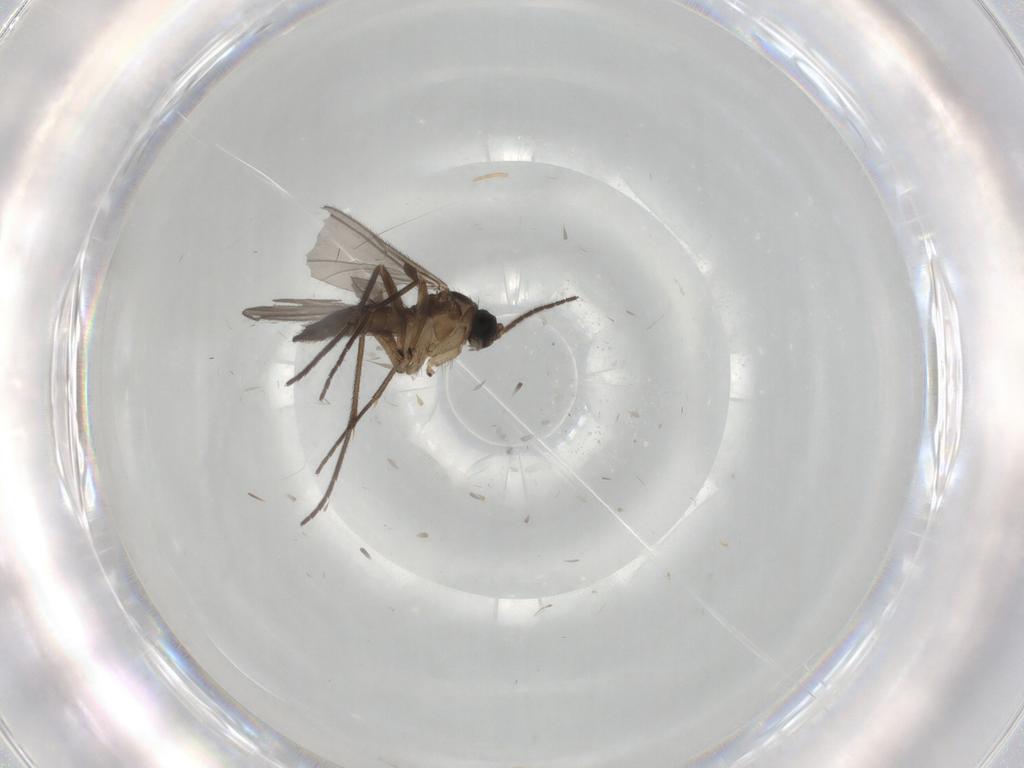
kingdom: Animalia
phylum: Arthropoda
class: Insecta
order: Diptera
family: Sciaridae
